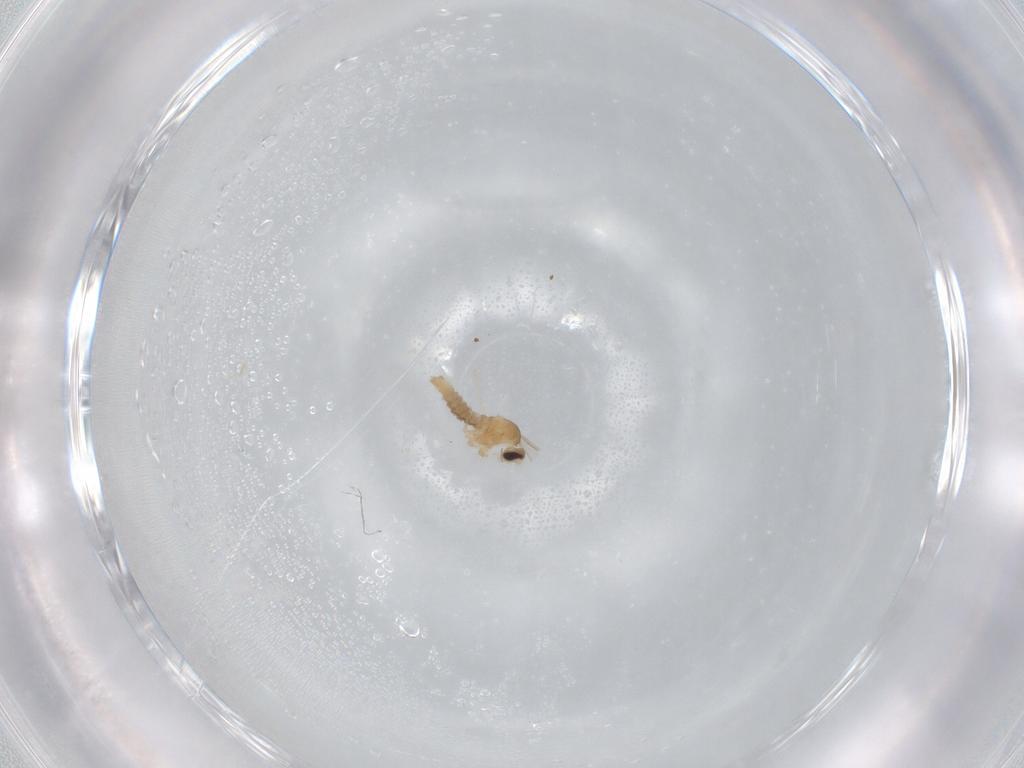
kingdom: Animalia
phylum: Arthropoda
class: Insecta
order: Diptera
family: Cecidomyiidae
